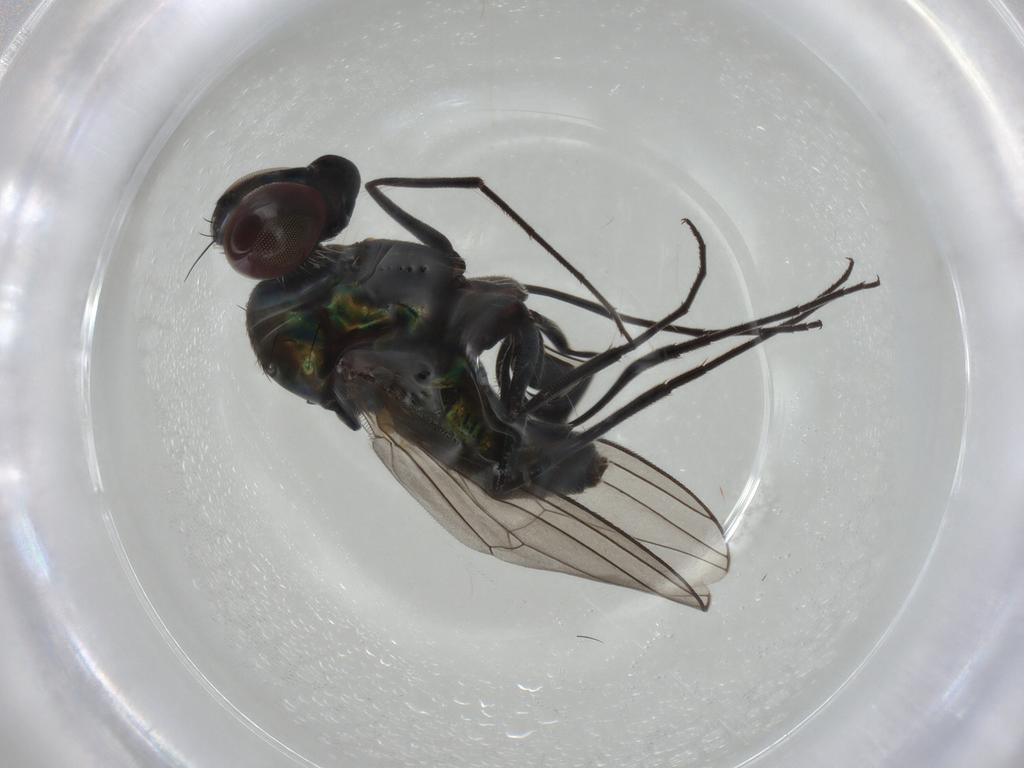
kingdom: Animalia
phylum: Arthropoda
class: Insecta
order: Diptera
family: Dolichopodidae
